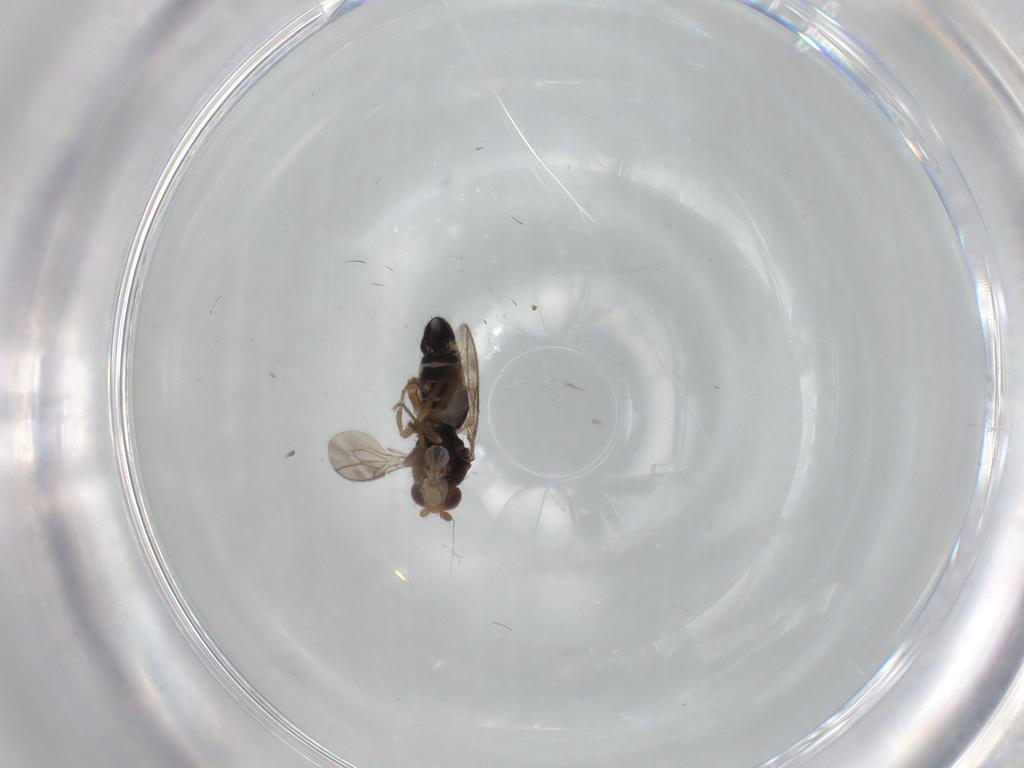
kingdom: Animalia
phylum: Arthropoda
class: Insecta
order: Diptera
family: Sphaeroceridae
